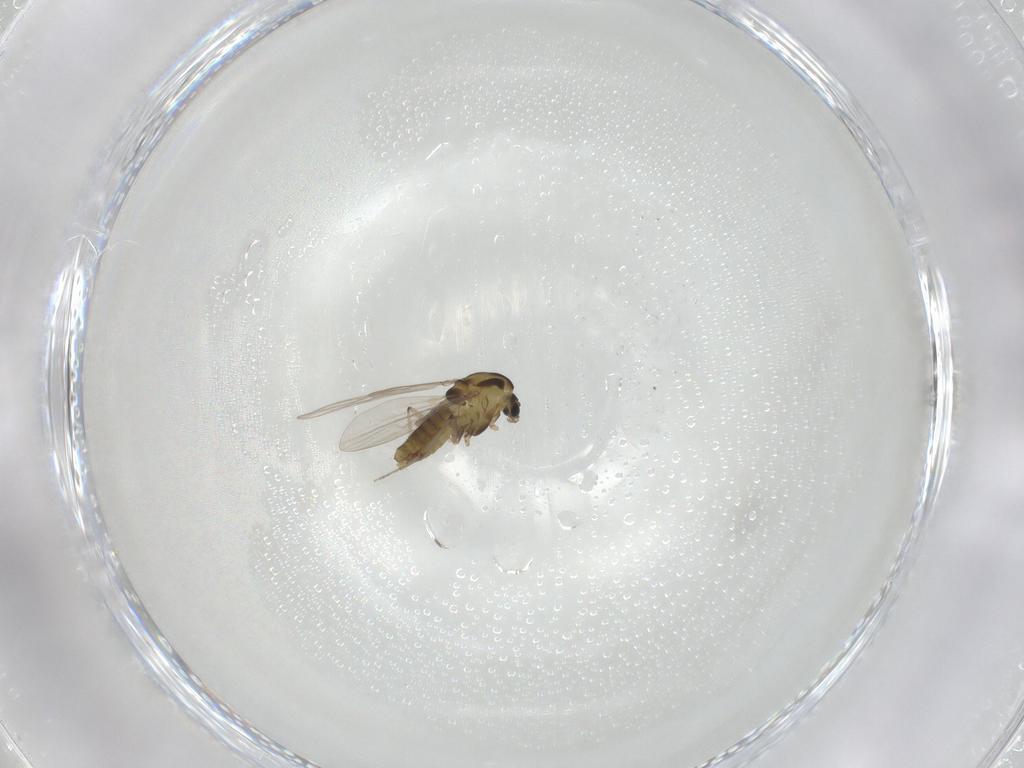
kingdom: Animalia
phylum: Arthropoda
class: Insecta
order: Diptera
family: Chironomidae
